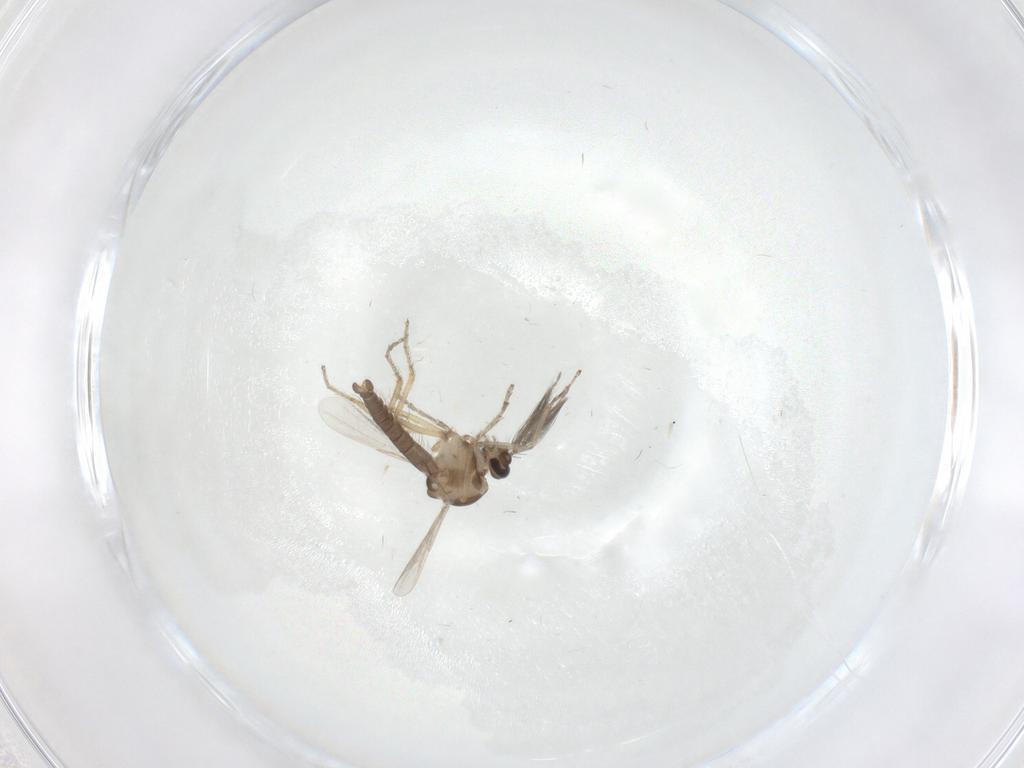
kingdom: Animalia
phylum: Arthropoda
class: Insecta
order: Diptera
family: Ceratopogonidae
